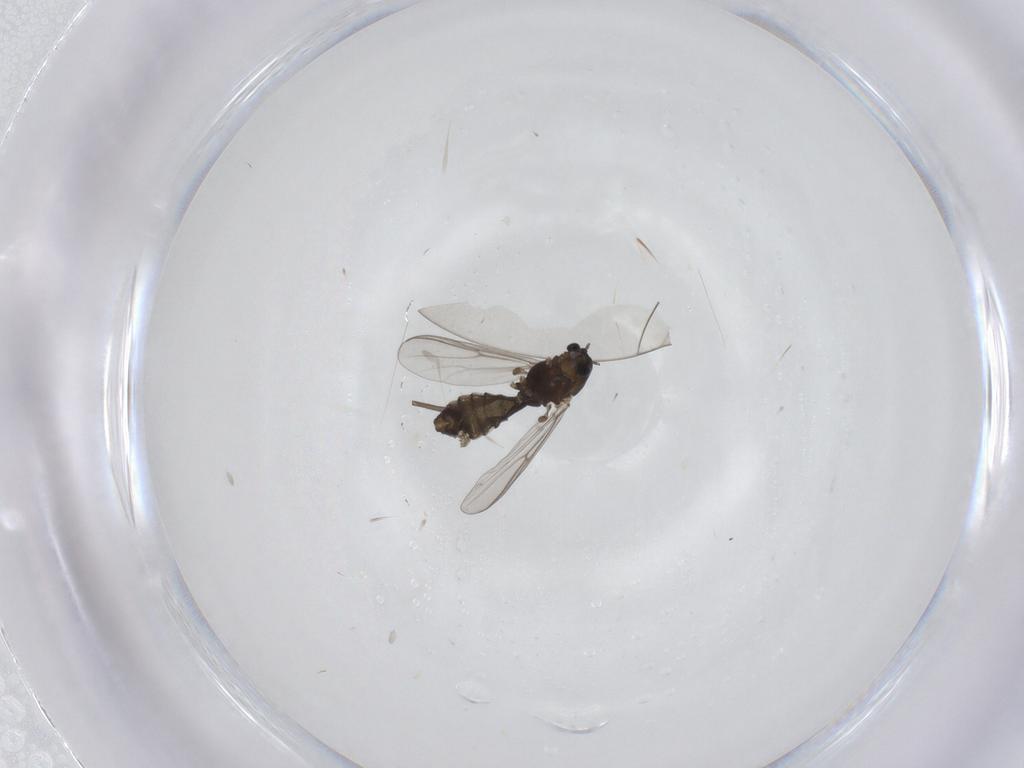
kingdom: Animalia
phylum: Arthropoda
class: Insecta
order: Diptera
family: Chironomidae
